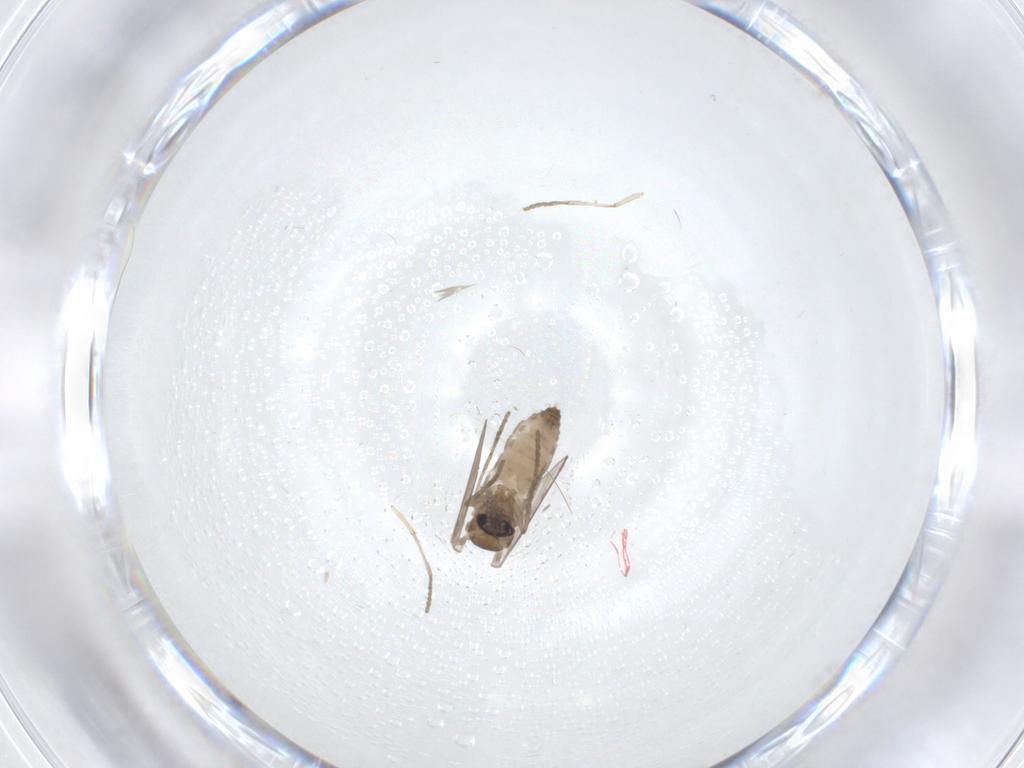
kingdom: Animalia
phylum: Arthropoda
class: Insecta
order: Diptera
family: Psychodidae
